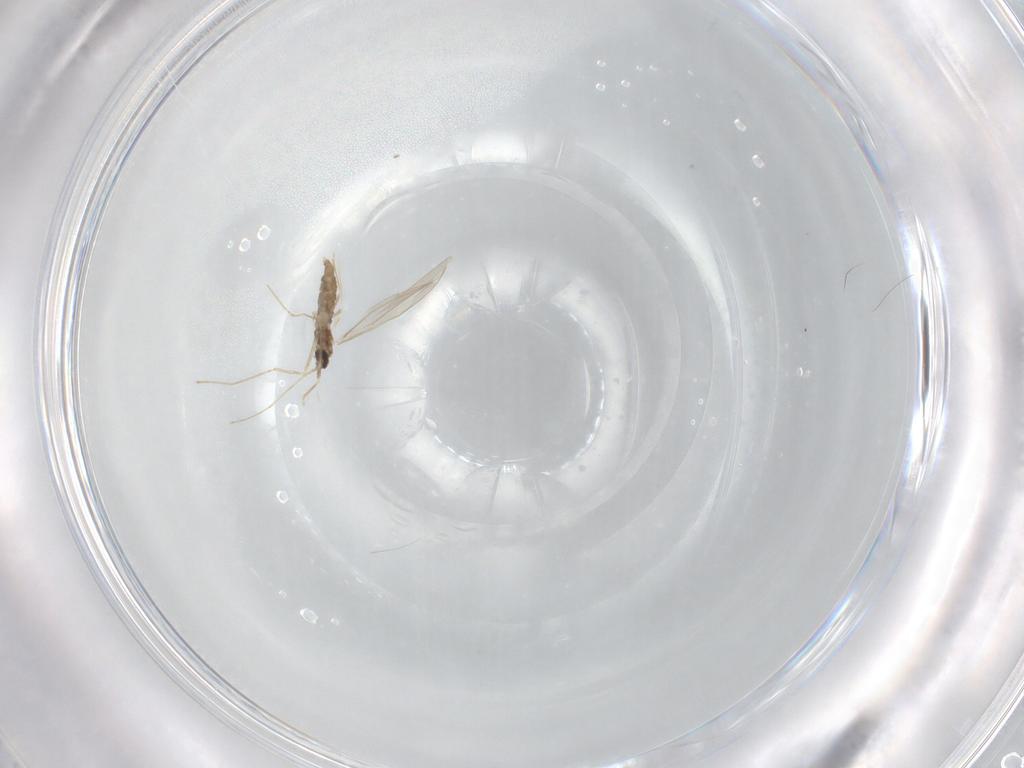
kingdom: Animalia
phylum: Arthropoda
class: Insecta
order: Diptera
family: Cecidomyiidae
